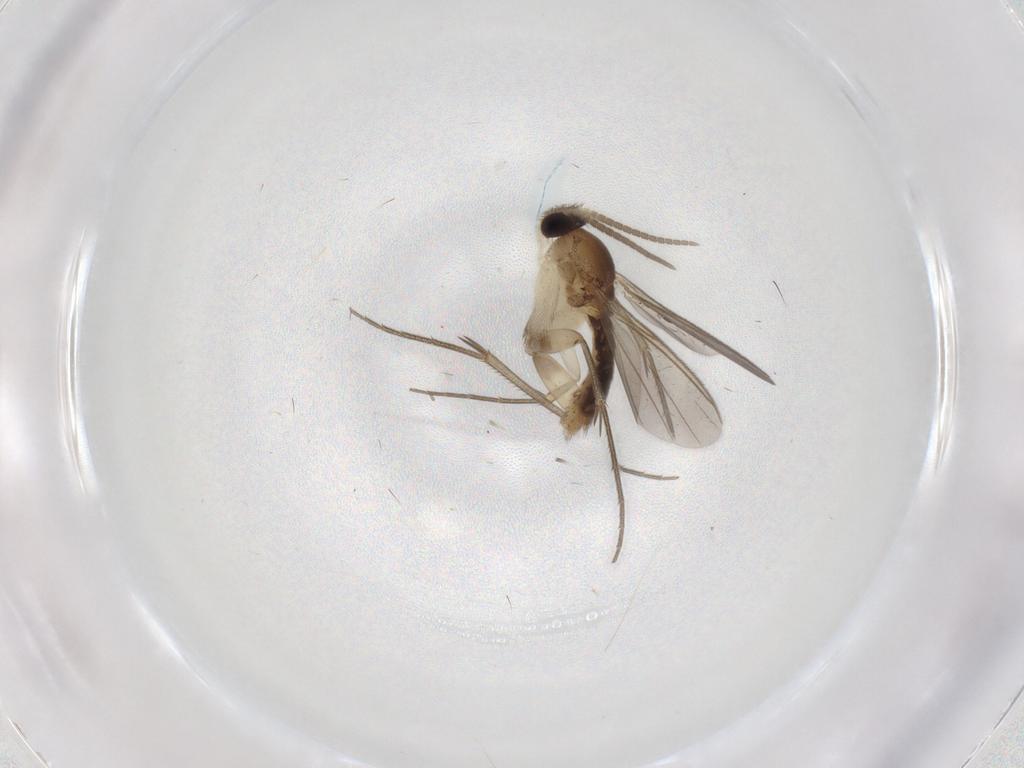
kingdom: Animalia
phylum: Arthropoda
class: Insecta
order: Diptera
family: Mycetophilidae
